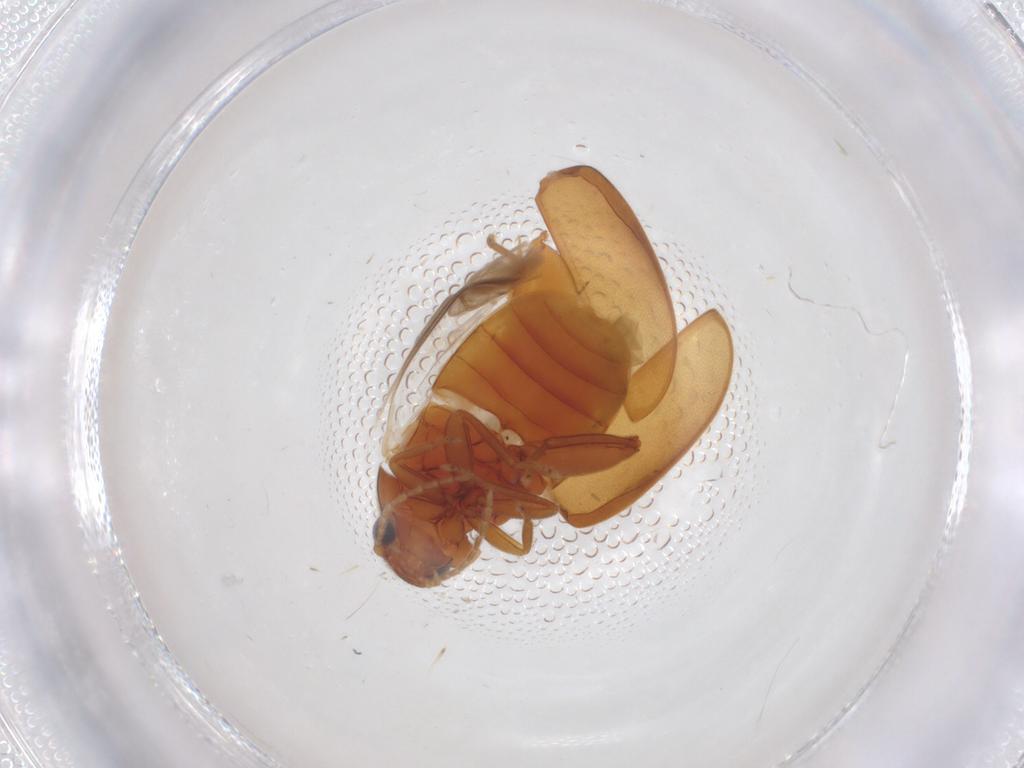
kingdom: Animalia
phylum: Arthropoda
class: Insecta
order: Coleoptera
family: Scirtidae
